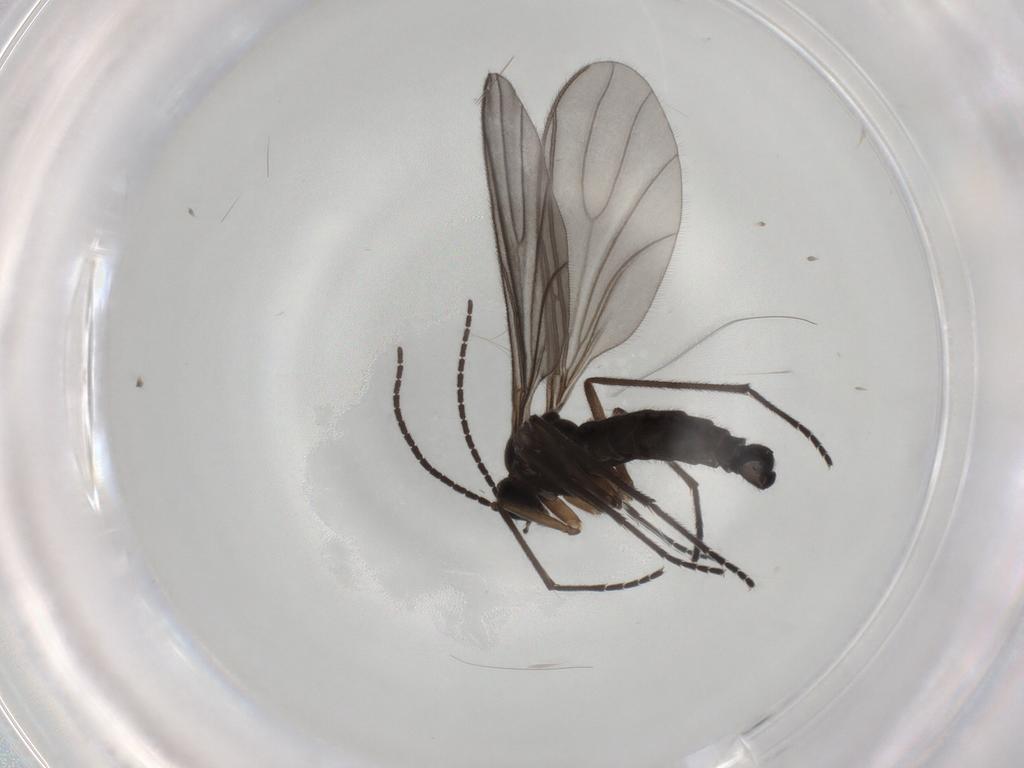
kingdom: Animalia
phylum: Arthropoda
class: Insecta
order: Diptera
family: Sciaridae
